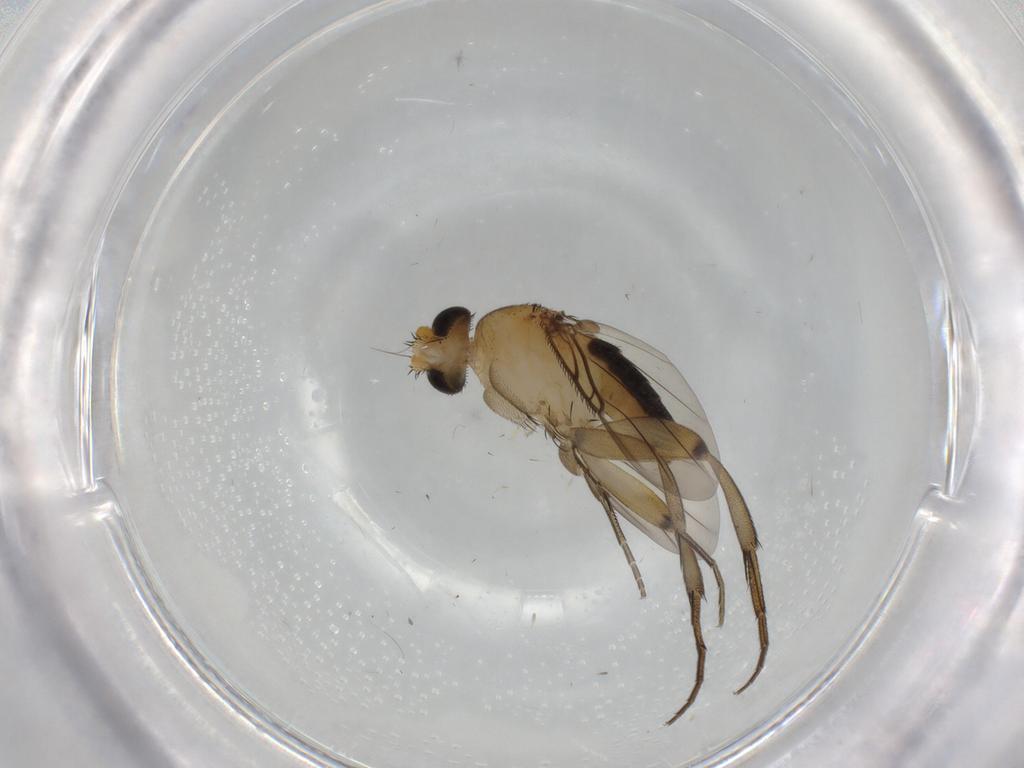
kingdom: Animalia
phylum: Arthropoda
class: Insecta
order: Diptera
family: Phoridae
